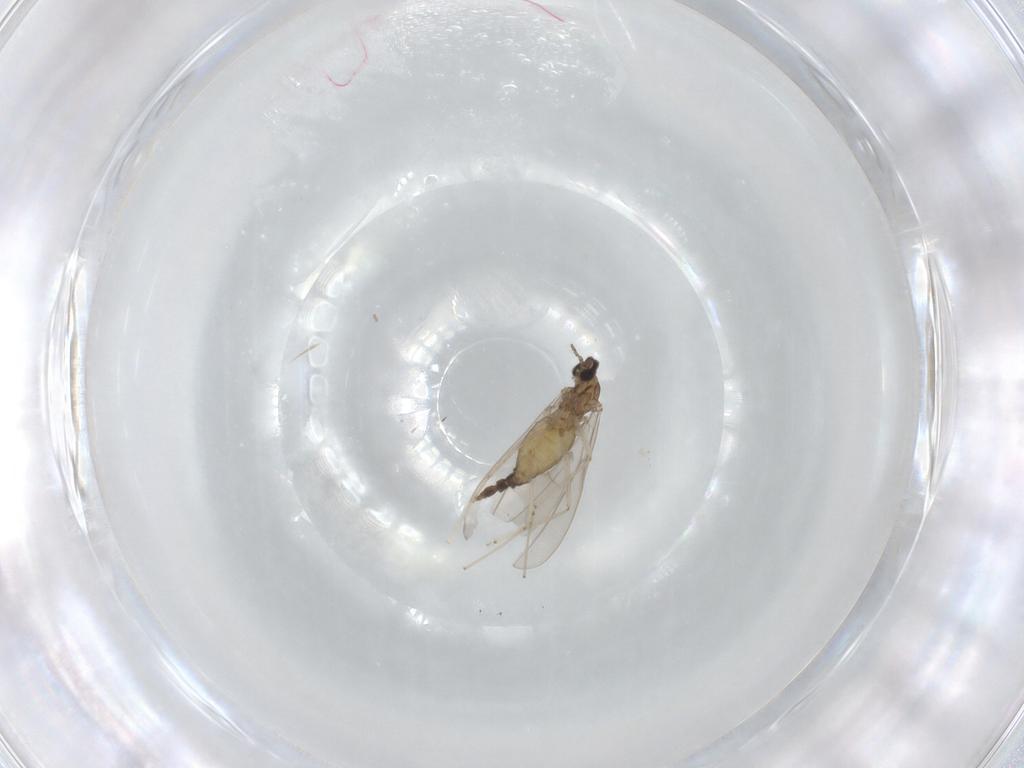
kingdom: Animalia
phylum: Arthropoda
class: Insecta
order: Diptera
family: Cecidomyiidae
